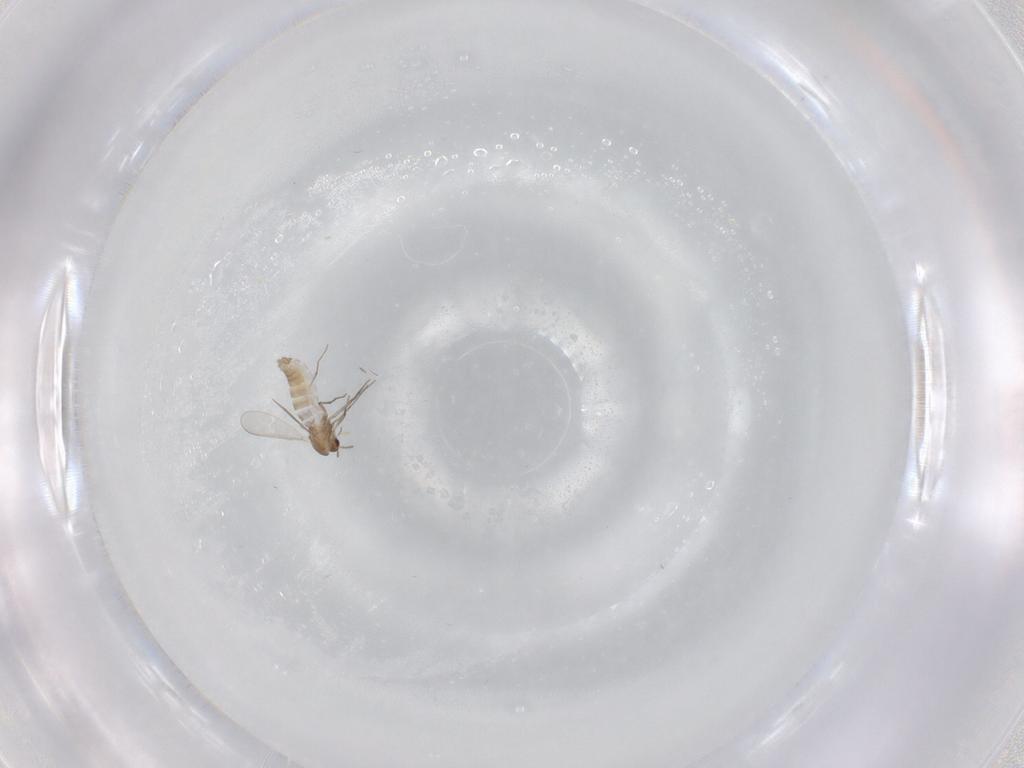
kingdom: Animalia
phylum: Arthropoda
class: Insecta
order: Diptera
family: Chironomidae
